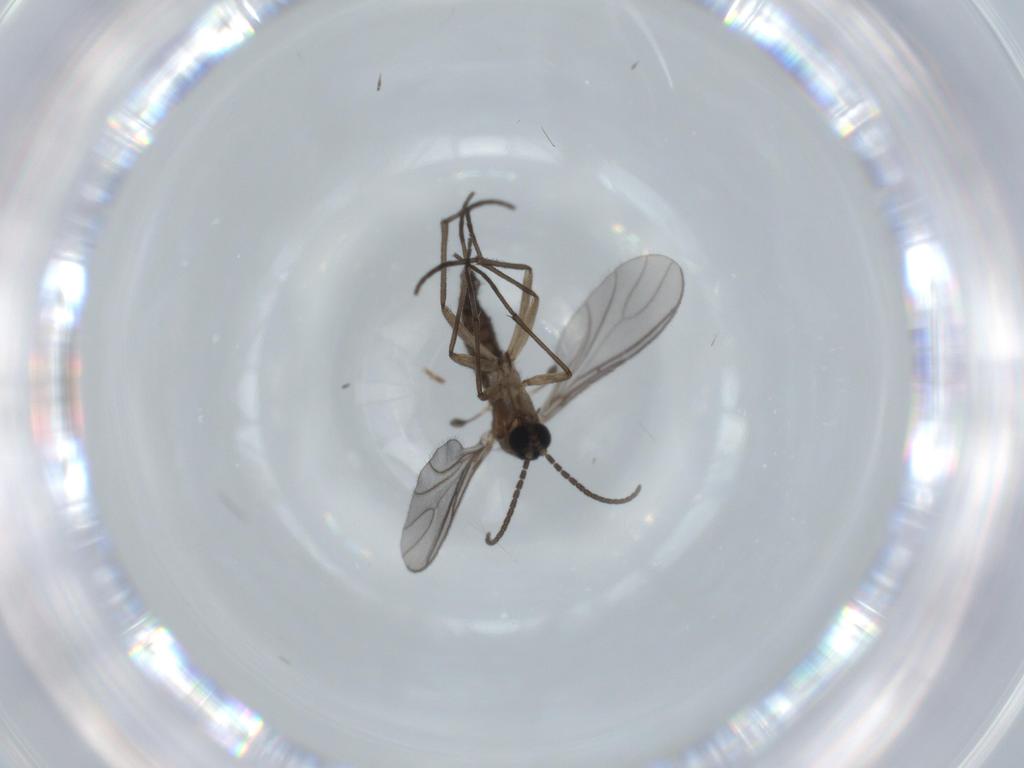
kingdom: Animalia
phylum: Arthropoda
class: Insecta
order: Diptera
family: Sciaridae
